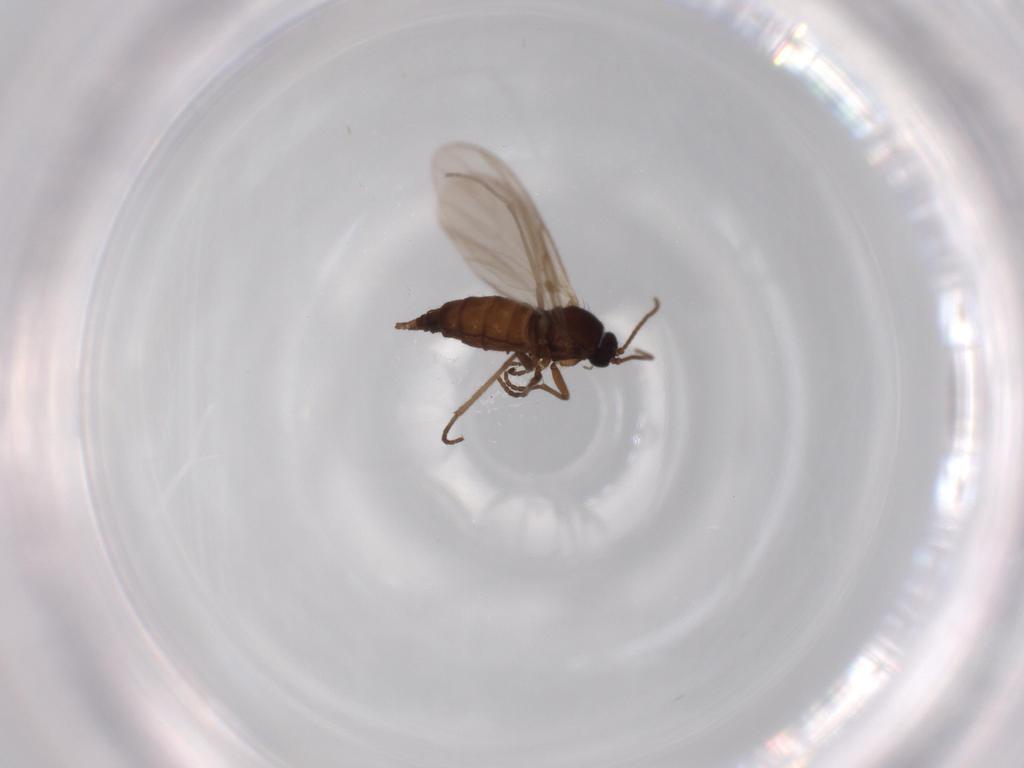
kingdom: Animalia
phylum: Arthropoda
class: Insecta
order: Diptera
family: Sciaridae
